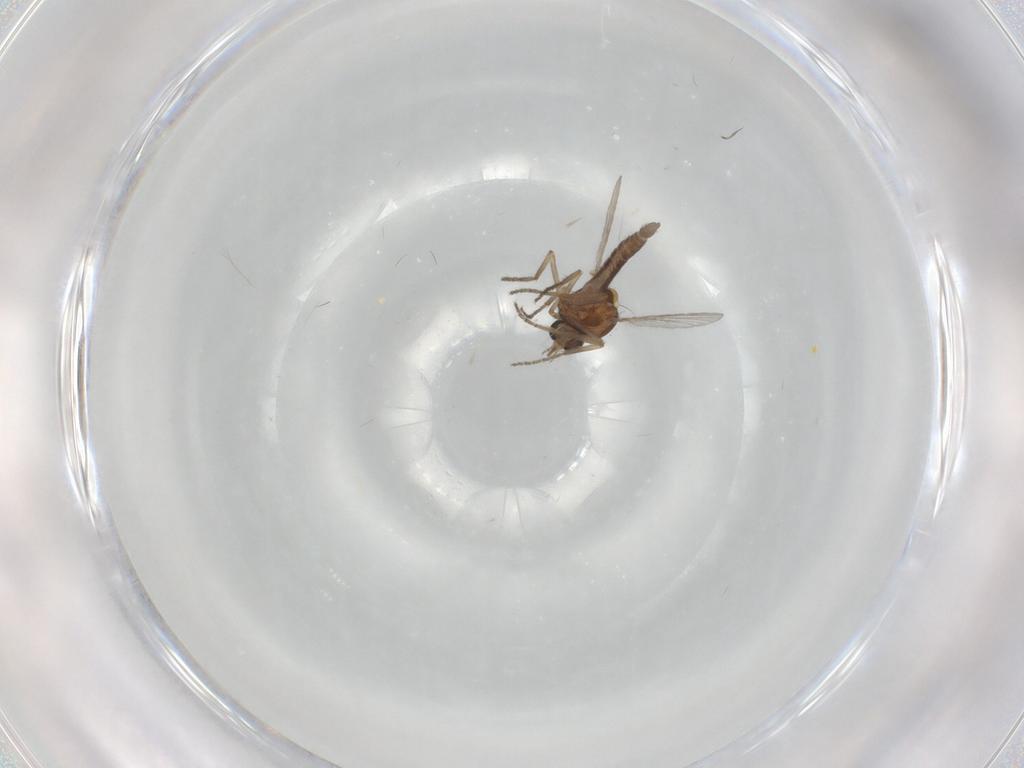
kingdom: Animalia
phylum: Arthropoda
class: Insecta
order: Diptera
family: Ceratopogonidae
